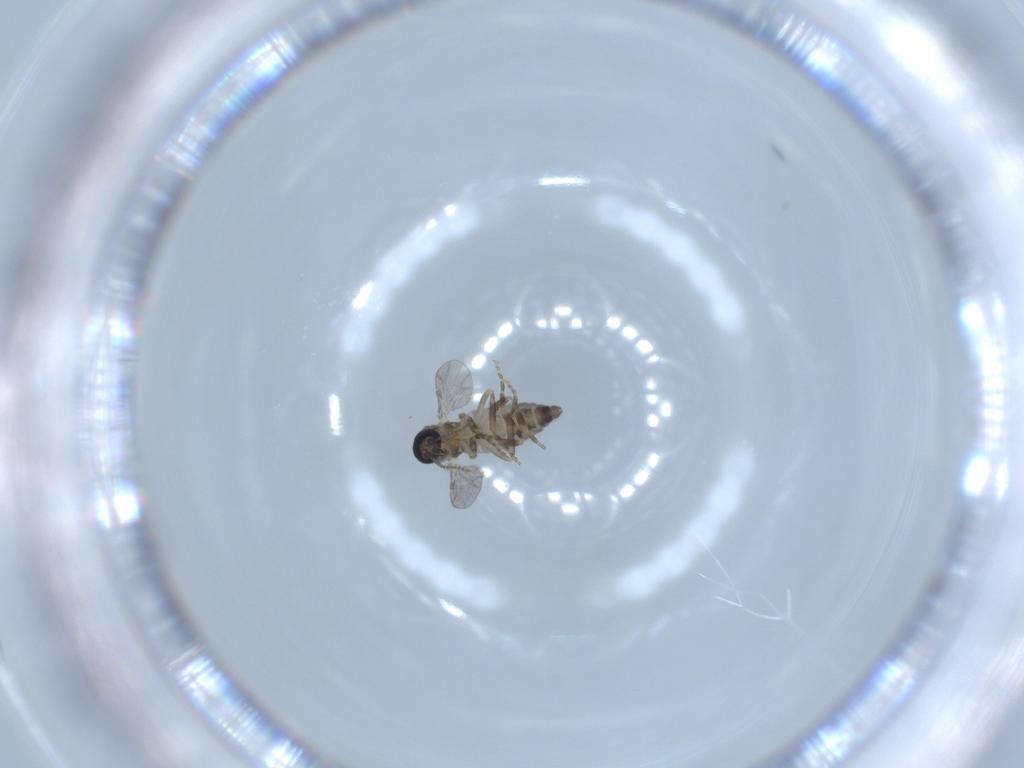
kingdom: Animalia
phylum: Arthropoda
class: Insecta
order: Diptera
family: Ceratopogonidae
